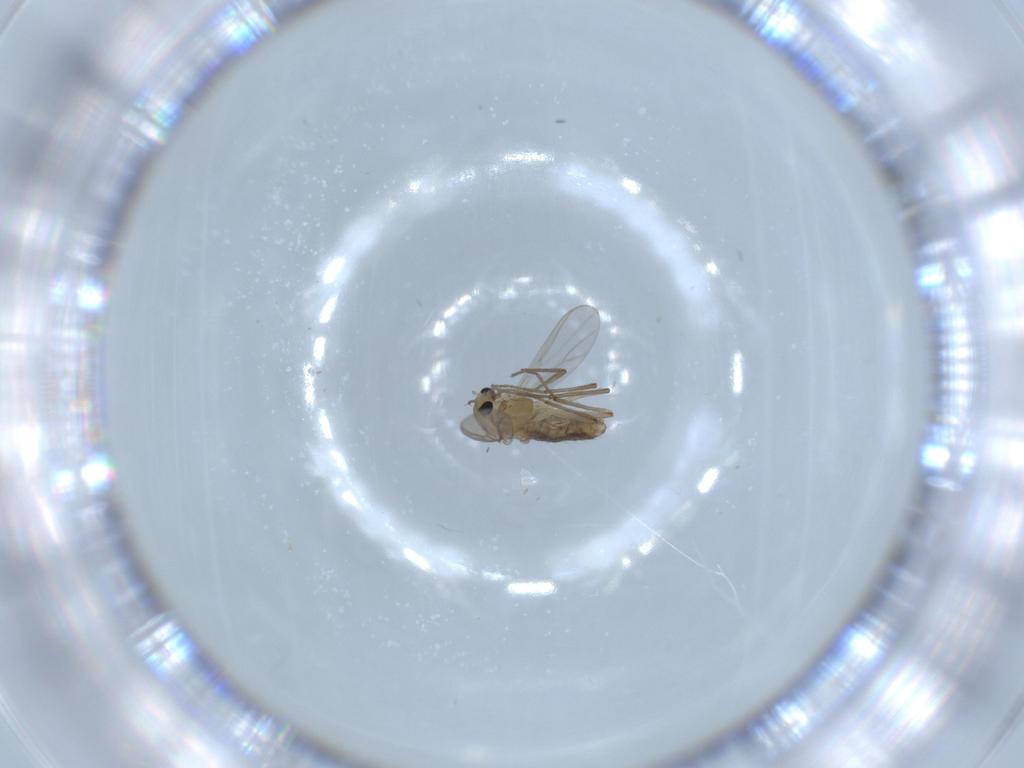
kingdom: Animalia
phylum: Arthropoda
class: Insecta
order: Diptera
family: Chironomidae
